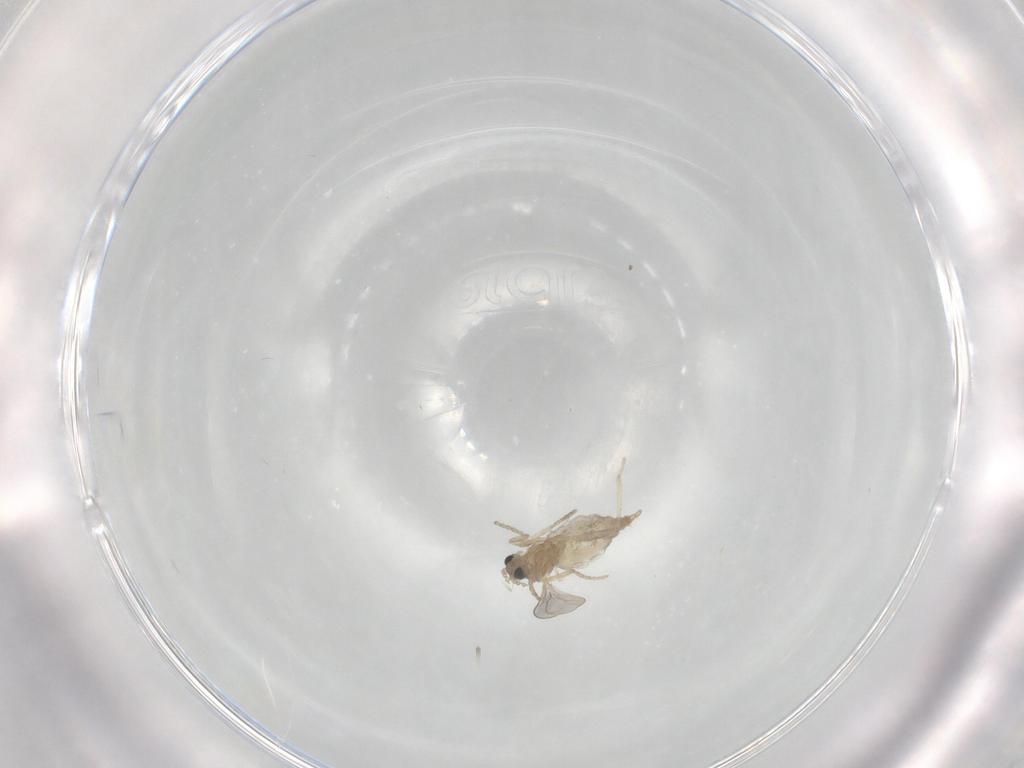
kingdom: Animalia
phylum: Arthropoda
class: Insecta
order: Diptera
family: Cecidomyiidae
